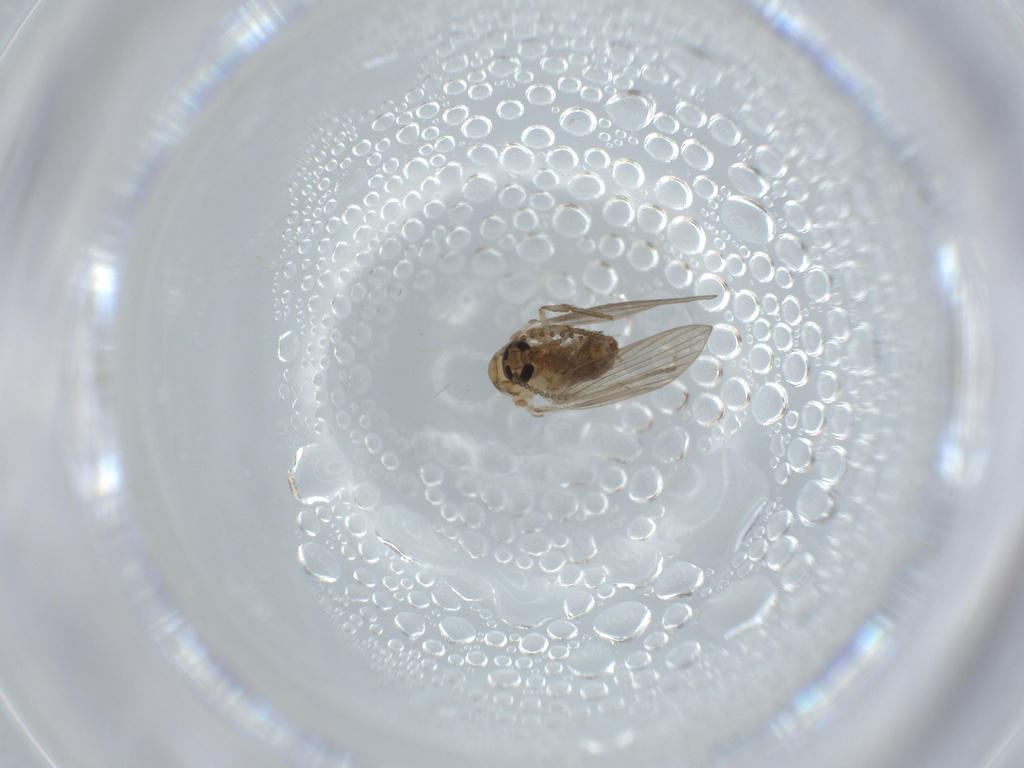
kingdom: Animalia
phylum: Arthropoda
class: Insecta
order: Diptera
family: Psychodidae
